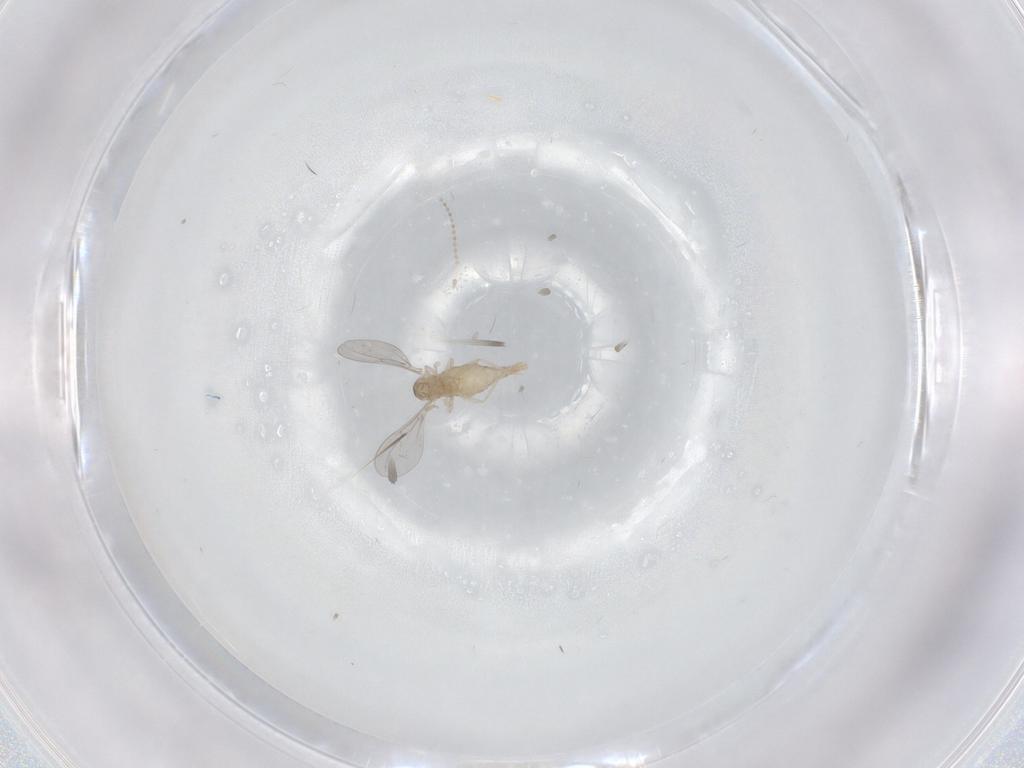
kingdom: Animalia
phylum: Arthropoda
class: Insecta
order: Diptera
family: Cecidomyiidae
